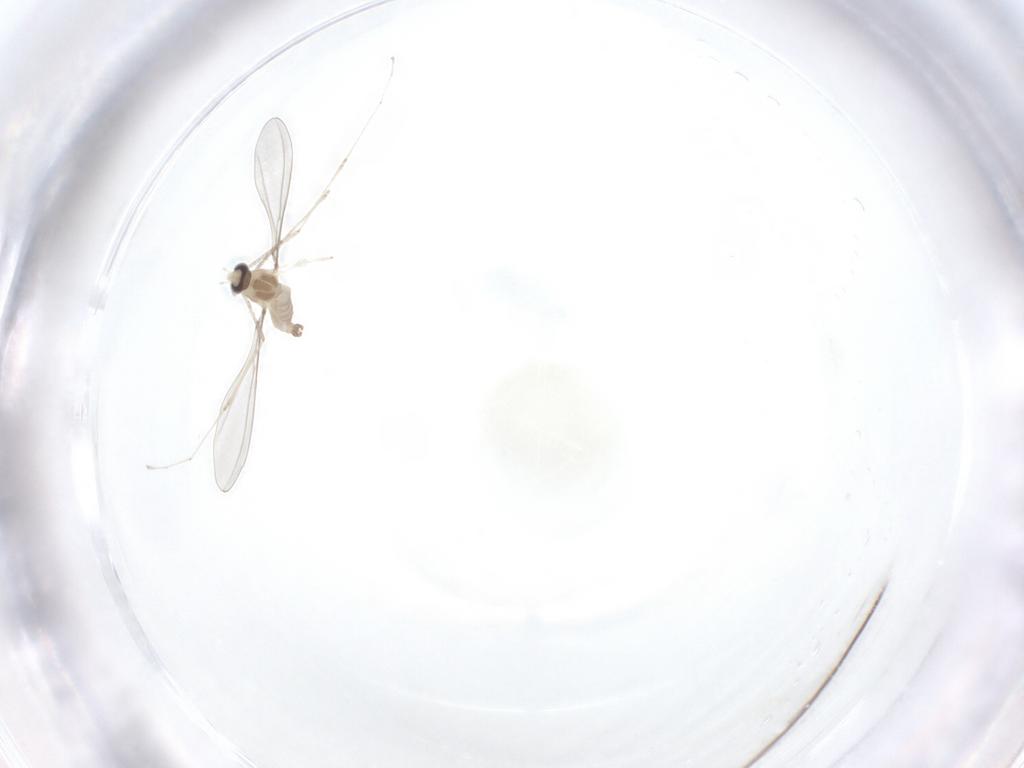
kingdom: Animalia
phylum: Arthropoda
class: Insecta
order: Diptera
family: Cecidomyiidae
